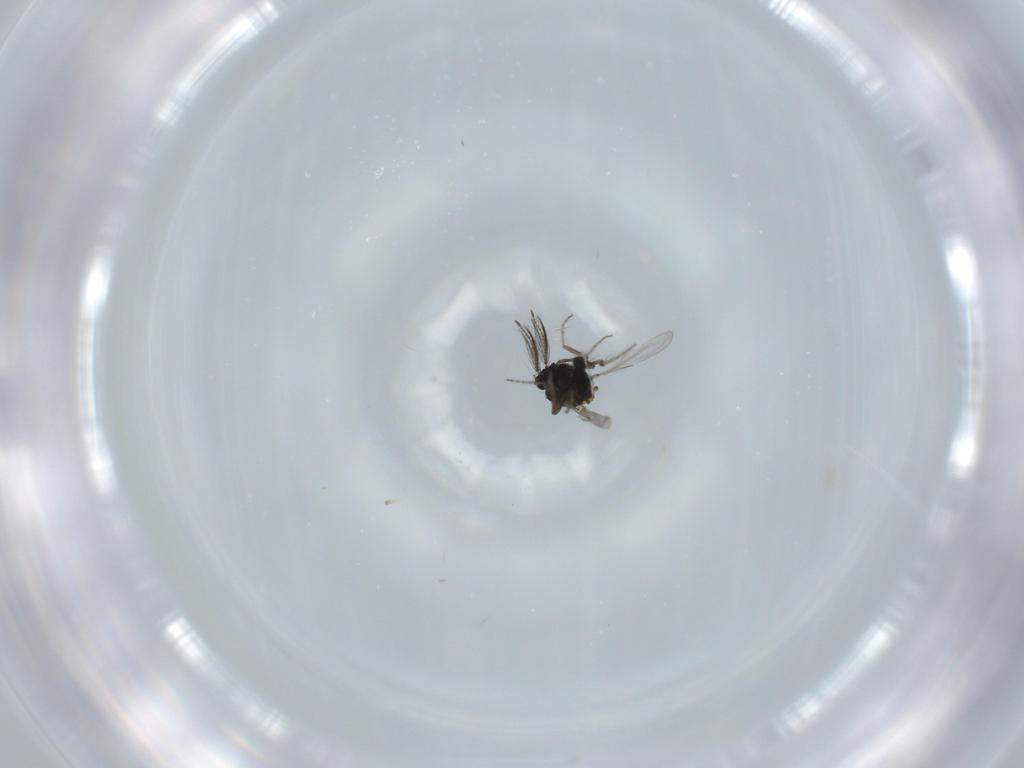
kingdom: Animalia
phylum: Arthropoda
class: Insecta
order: Diptera
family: Ceratopogonidae
